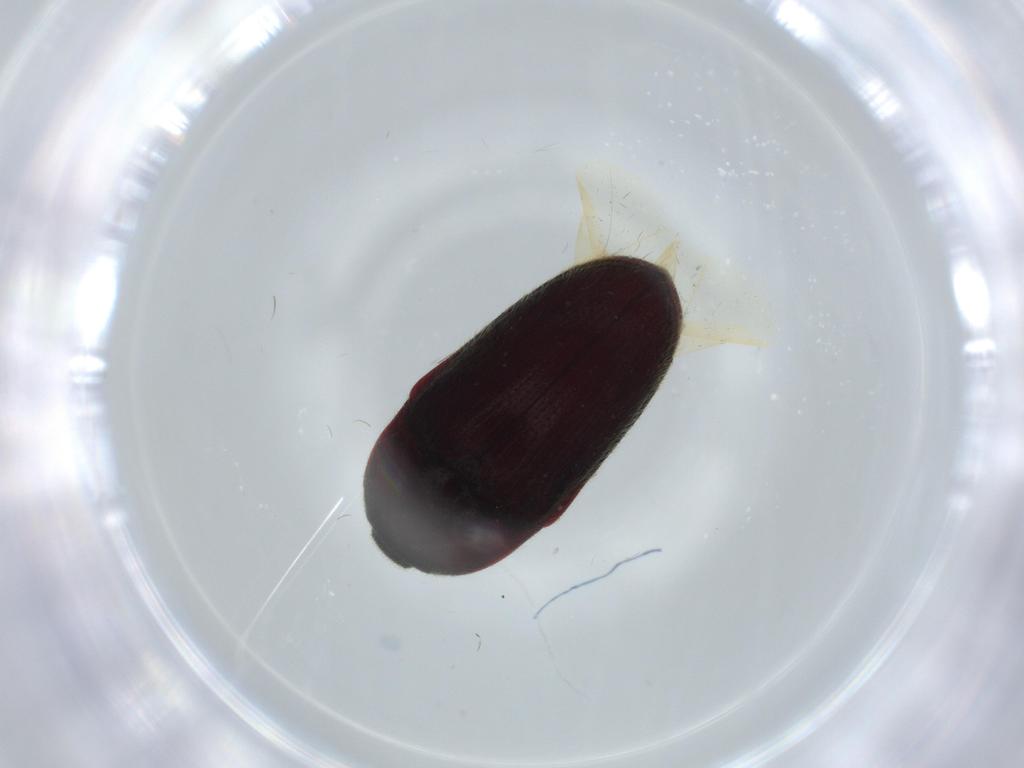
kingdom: Animalia
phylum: Arthropoda
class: Insecta
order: Coleoptera
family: Throscidae
